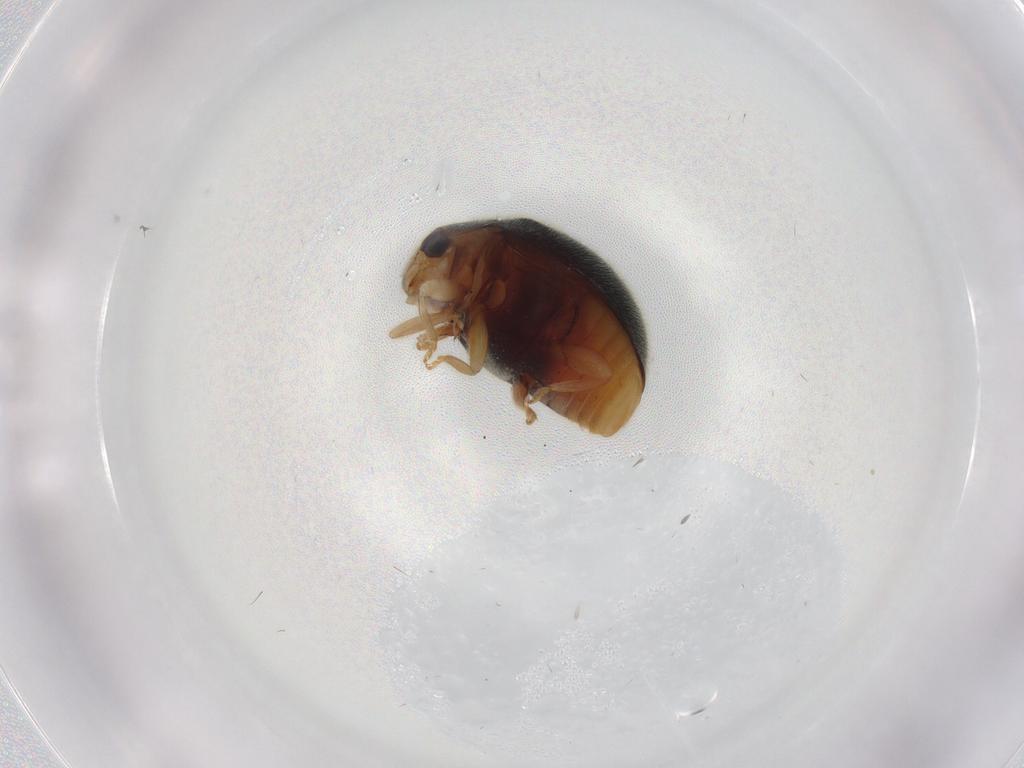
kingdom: Animalia
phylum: Arthropoda
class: Insecta
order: Coleoptera
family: Coccinellidae
